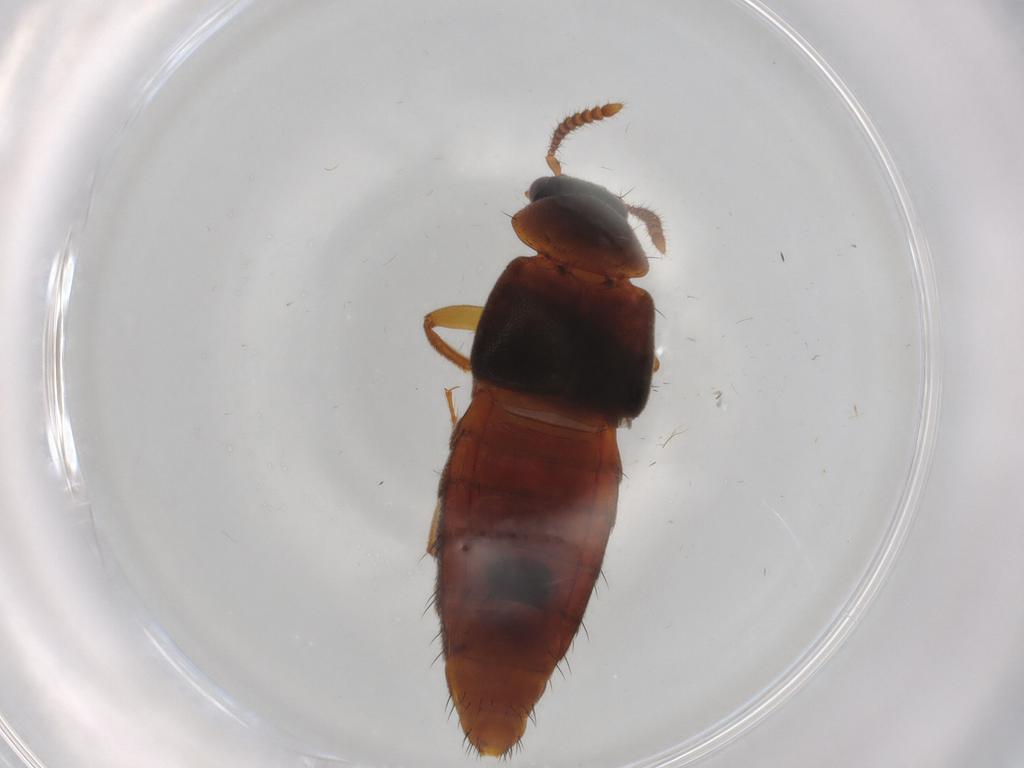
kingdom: Animalia
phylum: Arthropoda
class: Insecta
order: Coleoptera
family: Staphylinidae
